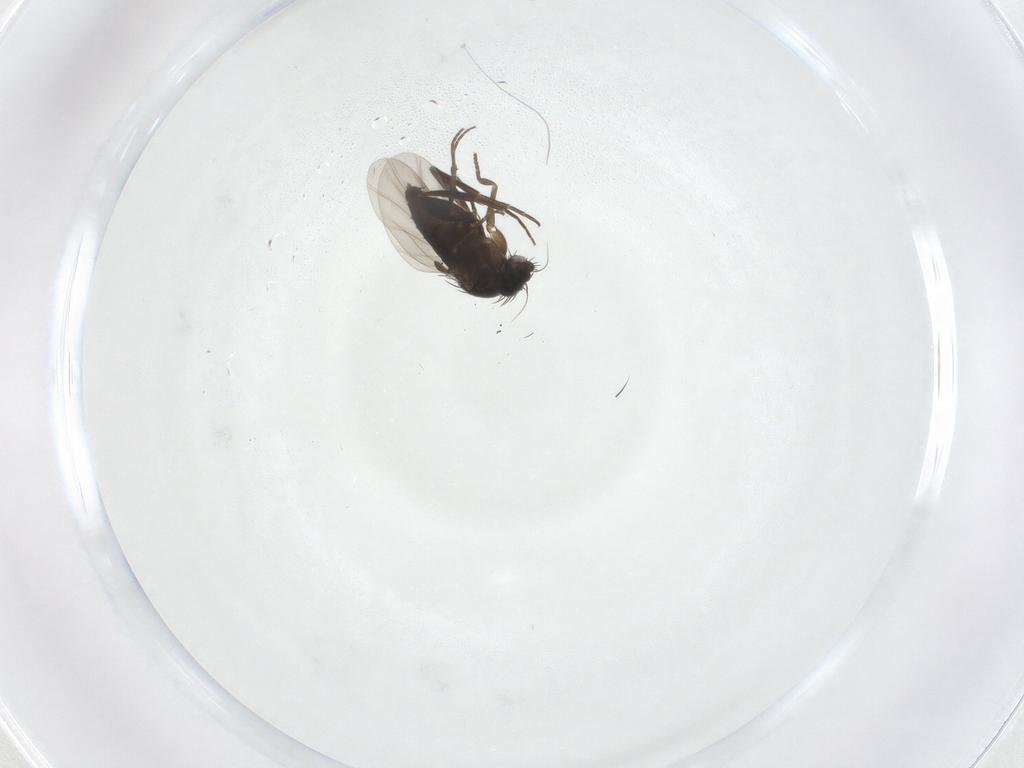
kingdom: Animalia
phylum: Arthropoda
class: Insecta
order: Diptera
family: Phoridae
